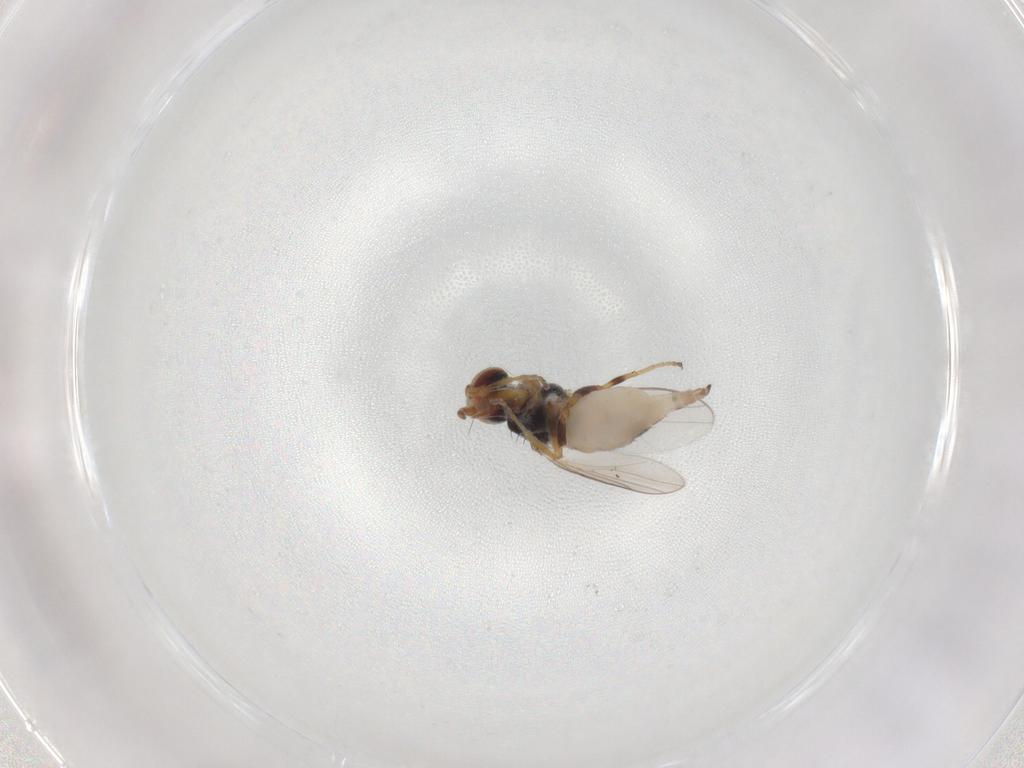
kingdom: Animalia
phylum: Arthropoda
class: Insecta
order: Diptera
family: Chloropidae
